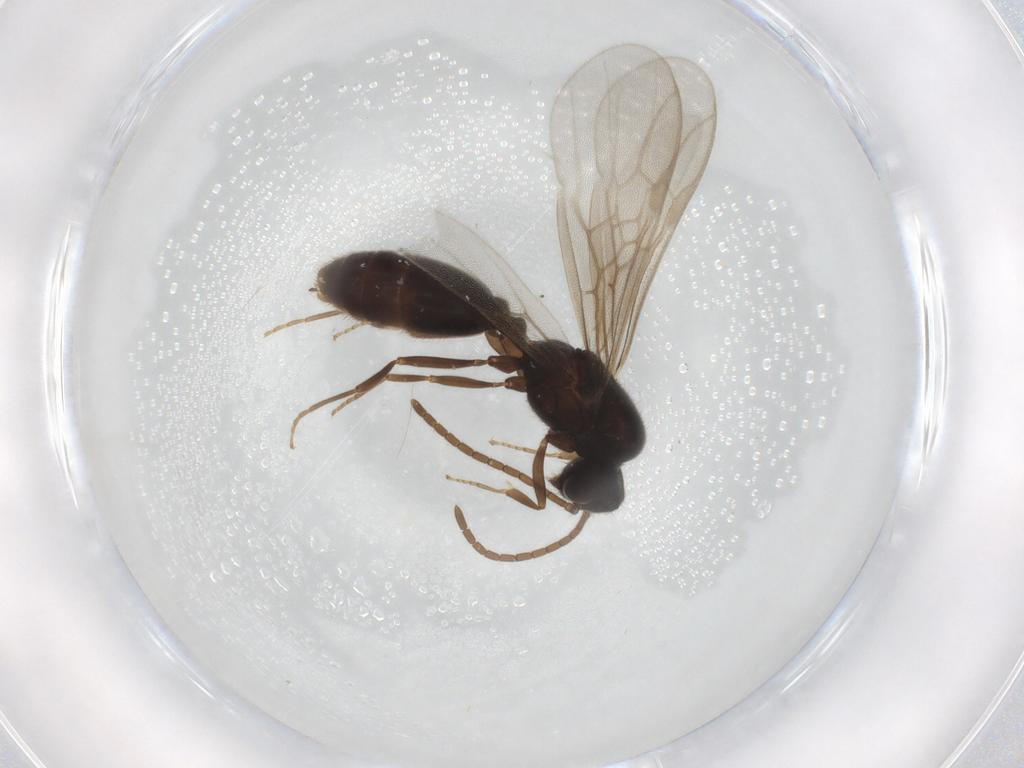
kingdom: Animalia
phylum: Arthropoda
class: Insecta
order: Hymenoptera
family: Formicidae
